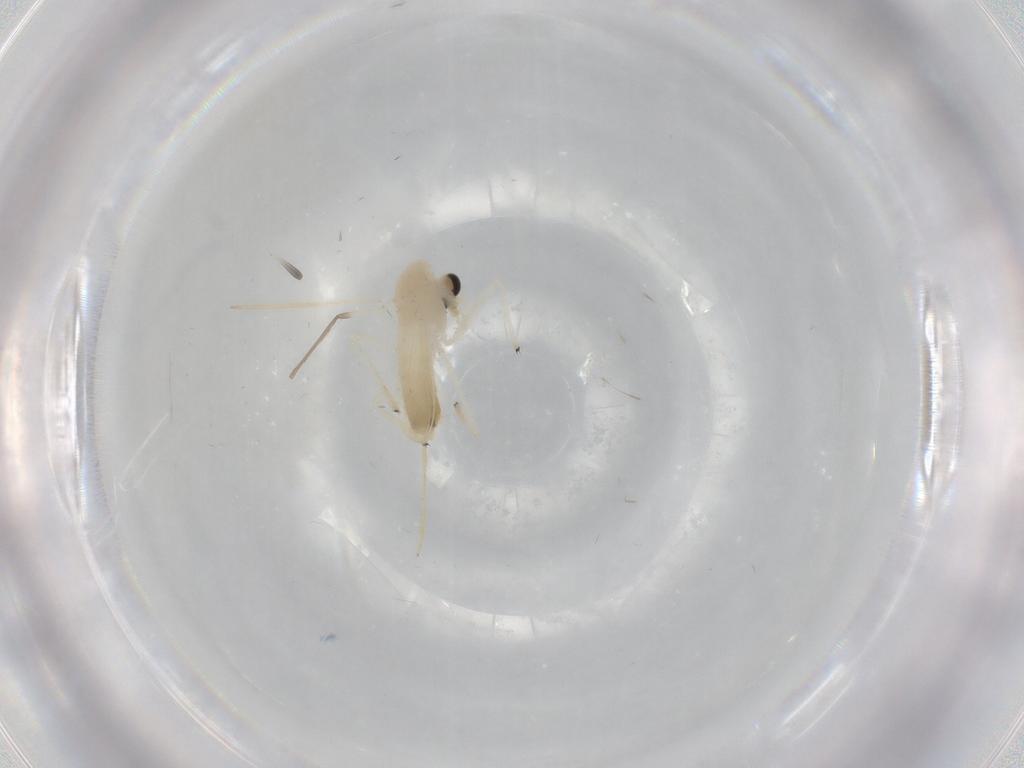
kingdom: Animalia
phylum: Arthropoda
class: Insecta
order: Diptera
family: Chironomidae
